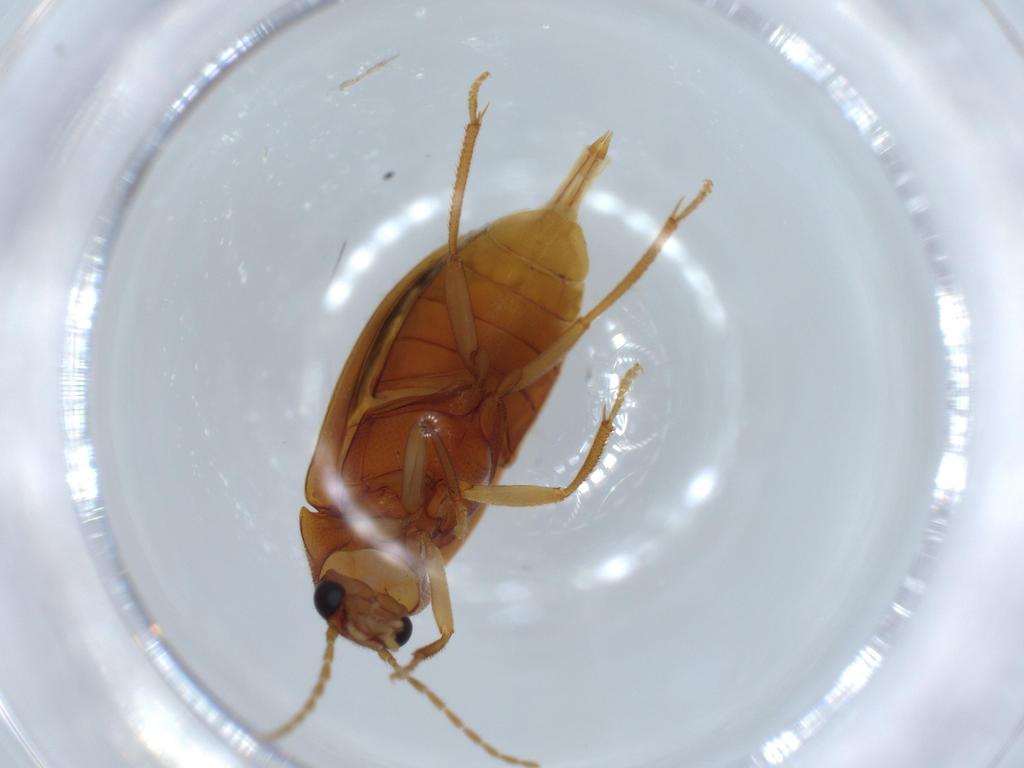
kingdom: Animalia
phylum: Arthropoda
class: Insecta
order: Coleoptera
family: Ptilodactylidae
